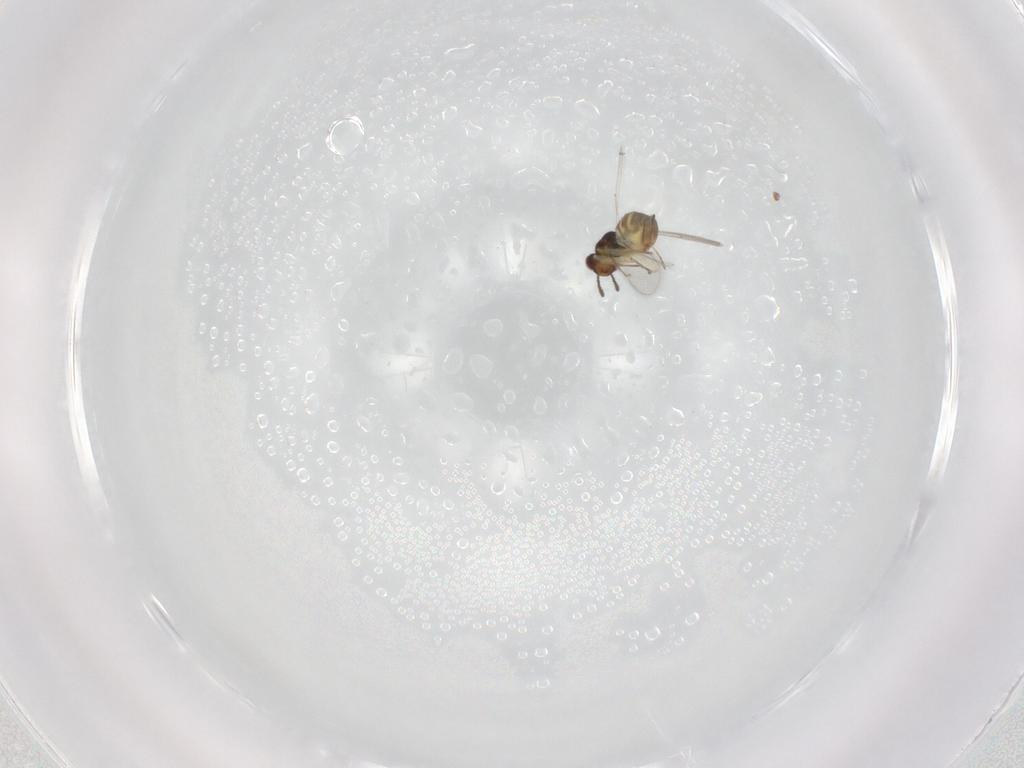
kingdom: Animalia
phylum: Arthropoda
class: Insecta
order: Hymenoptera
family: Eulophidae
